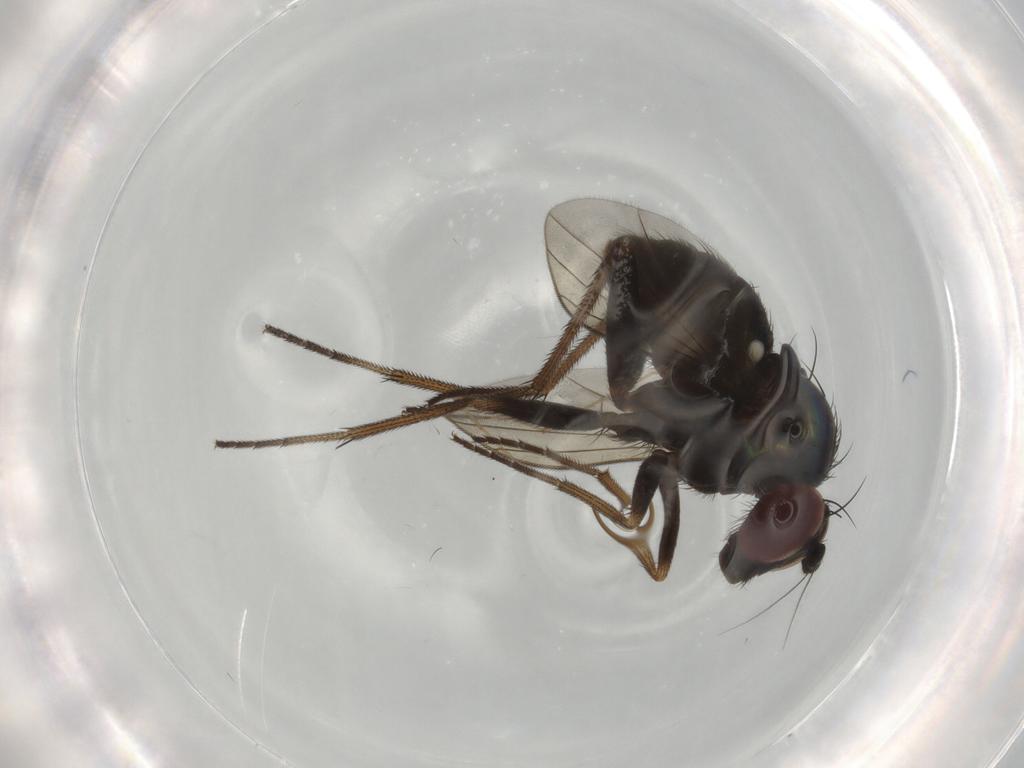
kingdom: Animalia
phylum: Arthropoda
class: Insecta
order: Diptera
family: Dolichopodidae
